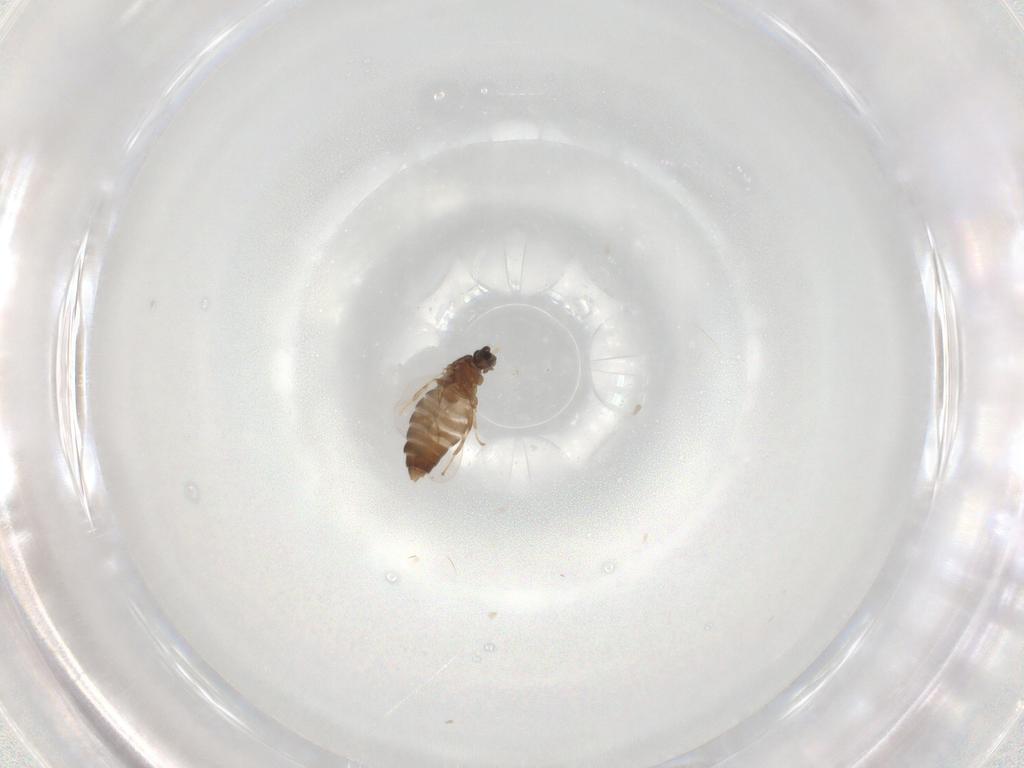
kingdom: Animalia
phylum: Arthropoda
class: Insecta
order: Diptera
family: Scatopsidae
